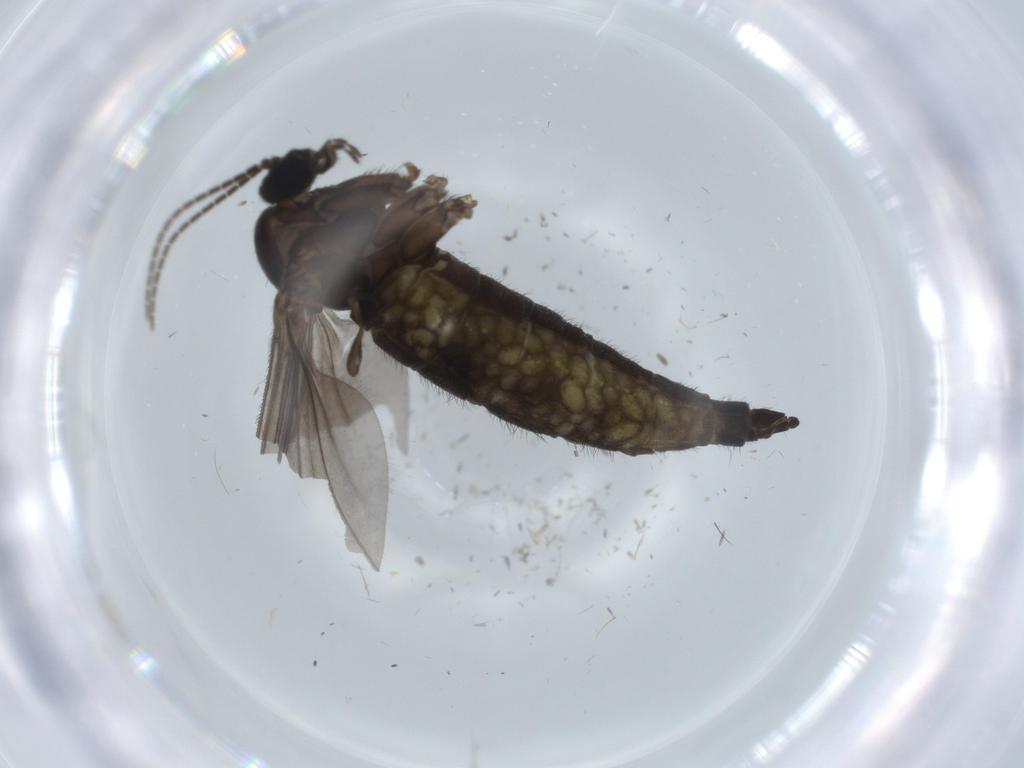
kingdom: Animalia
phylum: Arthropoda
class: Insecta
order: Diptera
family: Sciaridae
